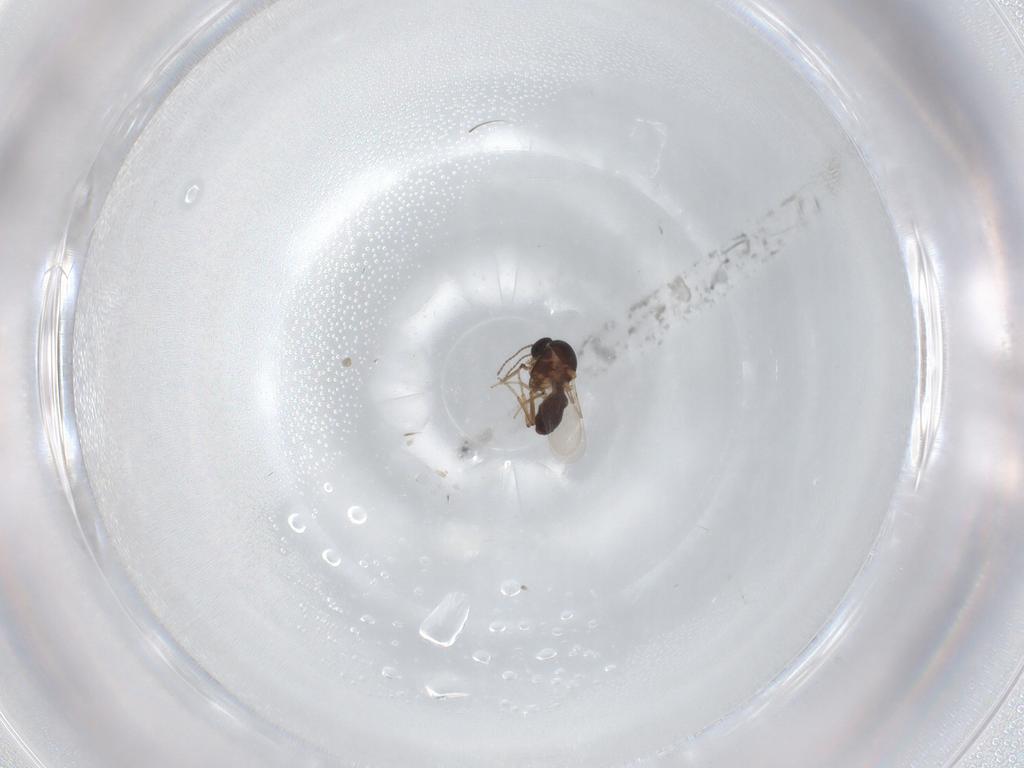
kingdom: Animalia
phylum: Arthropoda
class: Insecta
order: Diptera
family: Ceratopogonidae
